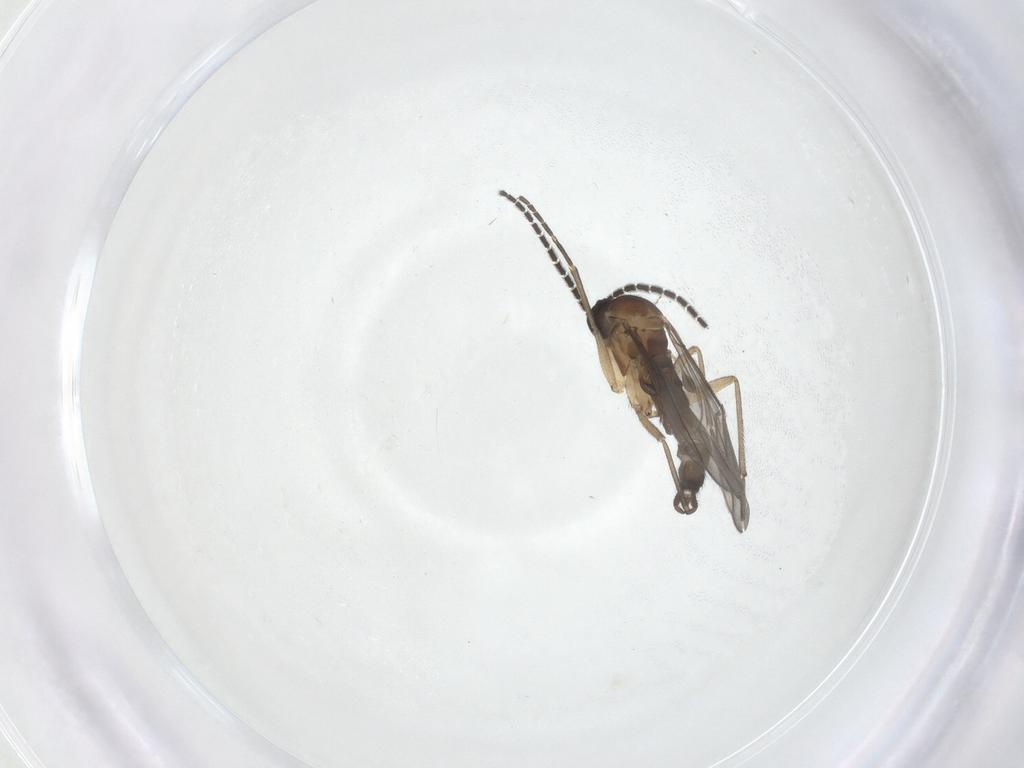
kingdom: Animalia
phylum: Arthropoda
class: Insecta
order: Diptera
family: Sciaridae
